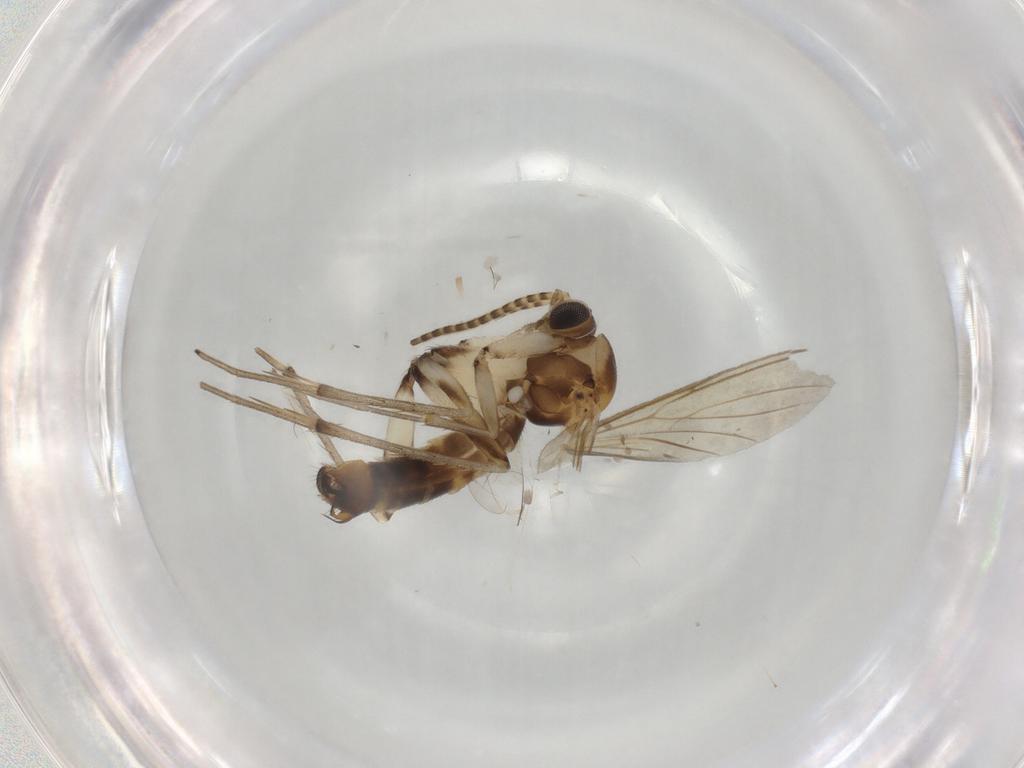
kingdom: Animalia
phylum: Arthropoda
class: Insecta
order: Diptera
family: Mycetophilidae
